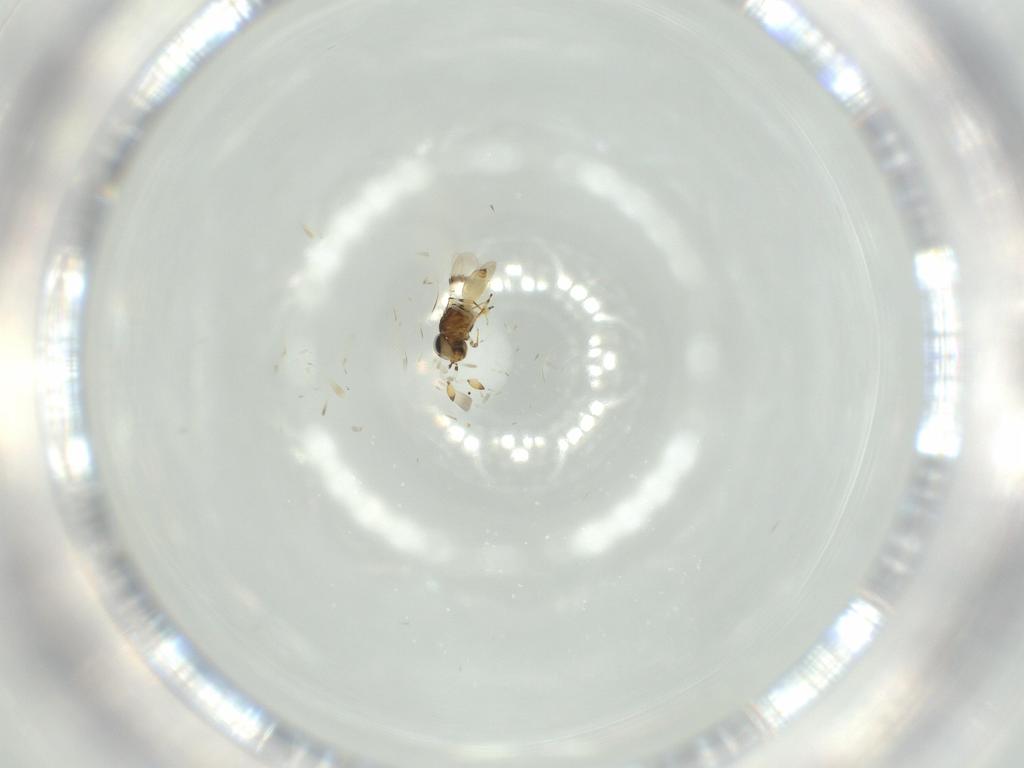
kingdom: Animalia
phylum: Arthropoda
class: Insecta
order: Hymenoptera
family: Scelionidae
